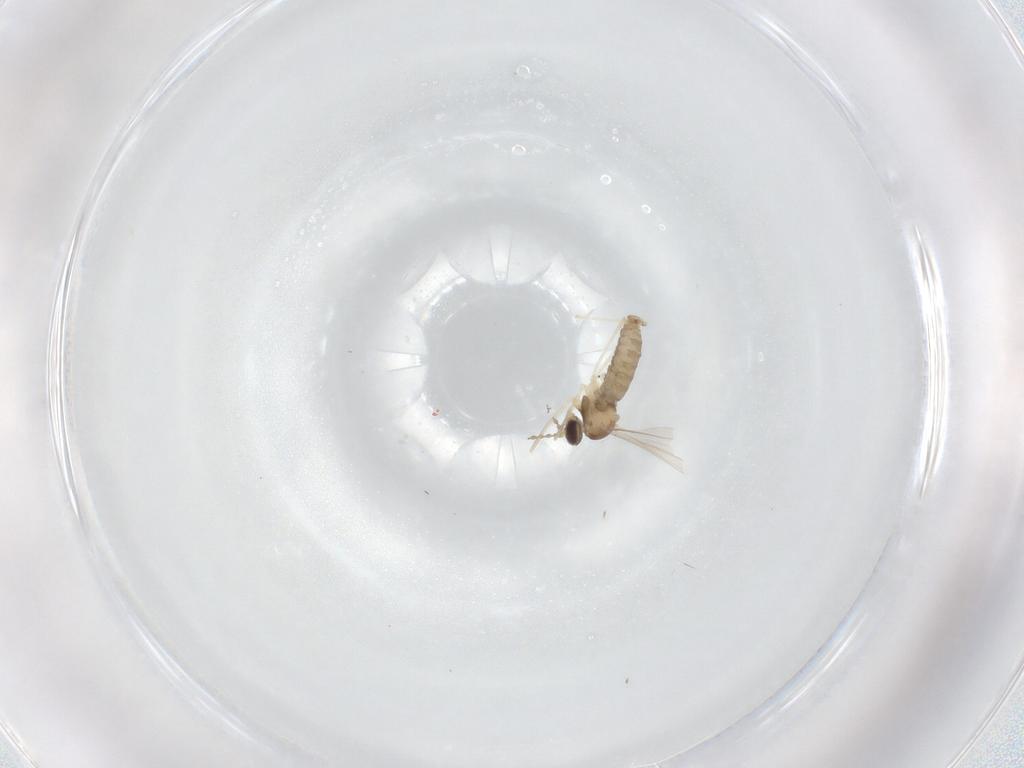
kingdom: Animalia
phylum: Arthropoda
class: Insecta
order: Diptera
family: Cecidomyiidae
